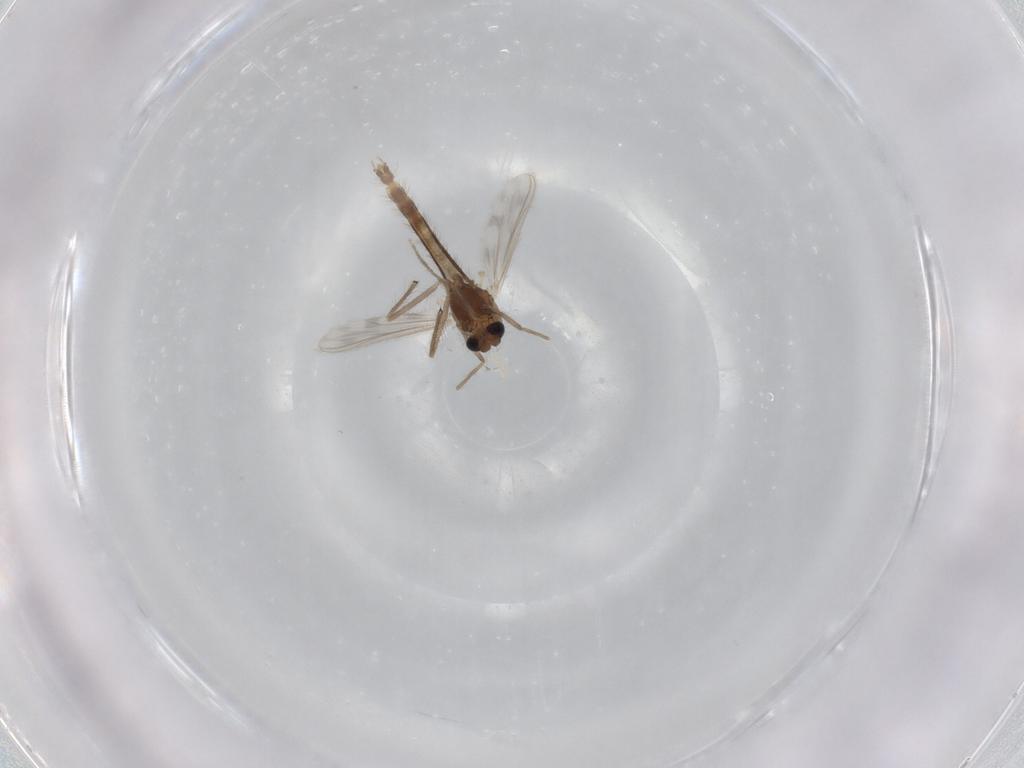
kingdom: Animalia
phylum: Arthropoda
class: Insecta
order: Diptera
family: Chironomidae
